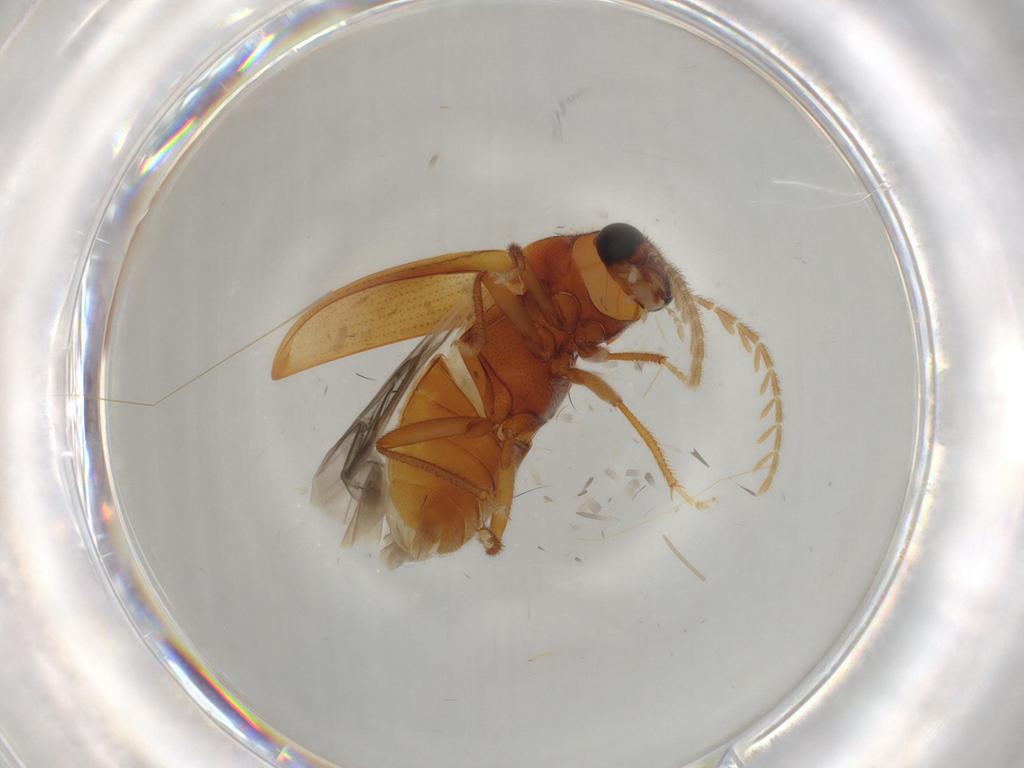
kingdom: Animalia
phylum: Arthropoda
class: Insecta
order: Coleoptera
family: Ptilodactylidae
